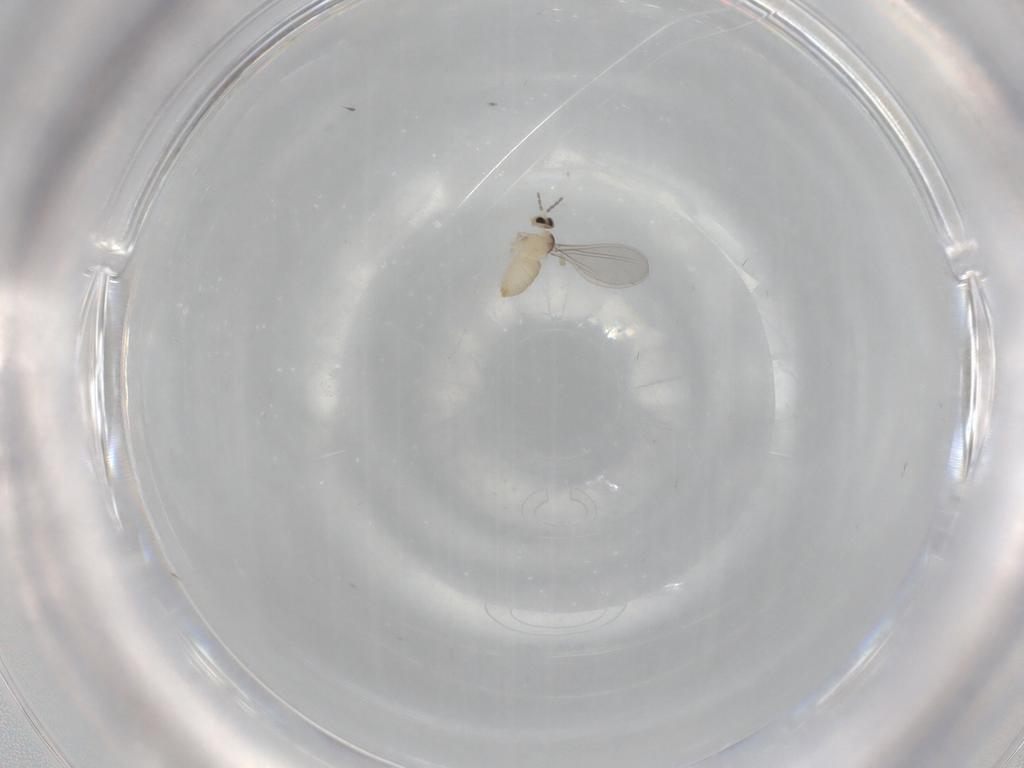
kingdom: Animalia
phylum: Arthropoda
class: Insecta
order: Diptera
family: Cecidomyiidae
